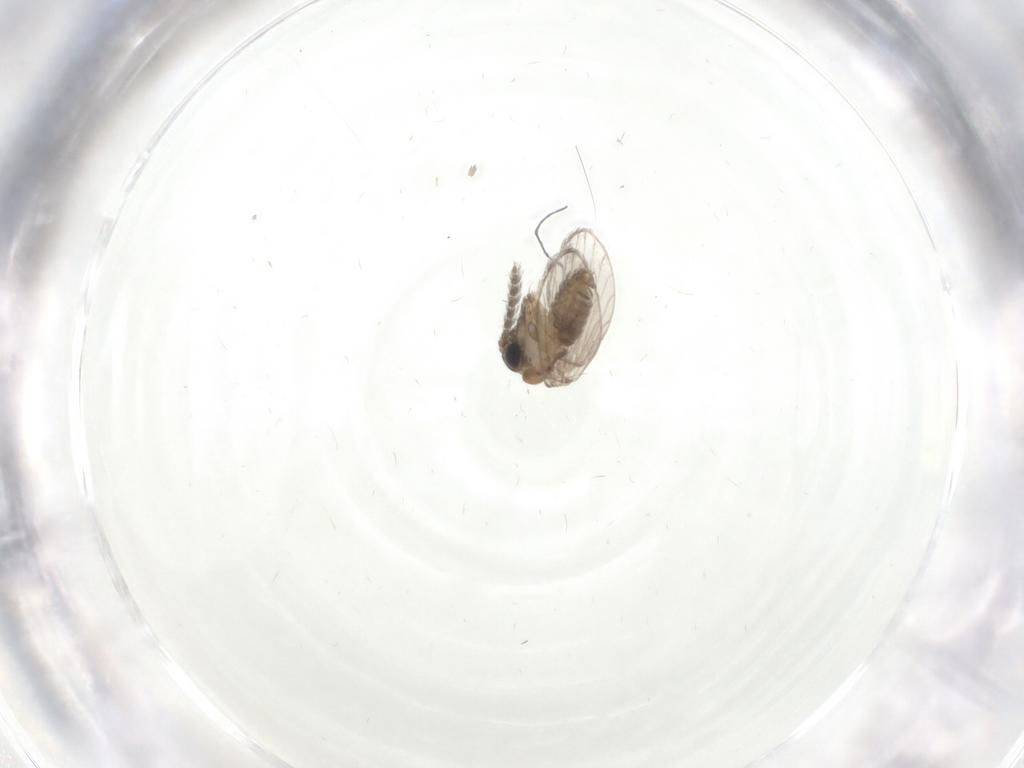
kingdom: Animalia
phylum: Arthropoda
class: Insecta
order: Diptera
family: Psychodidae
